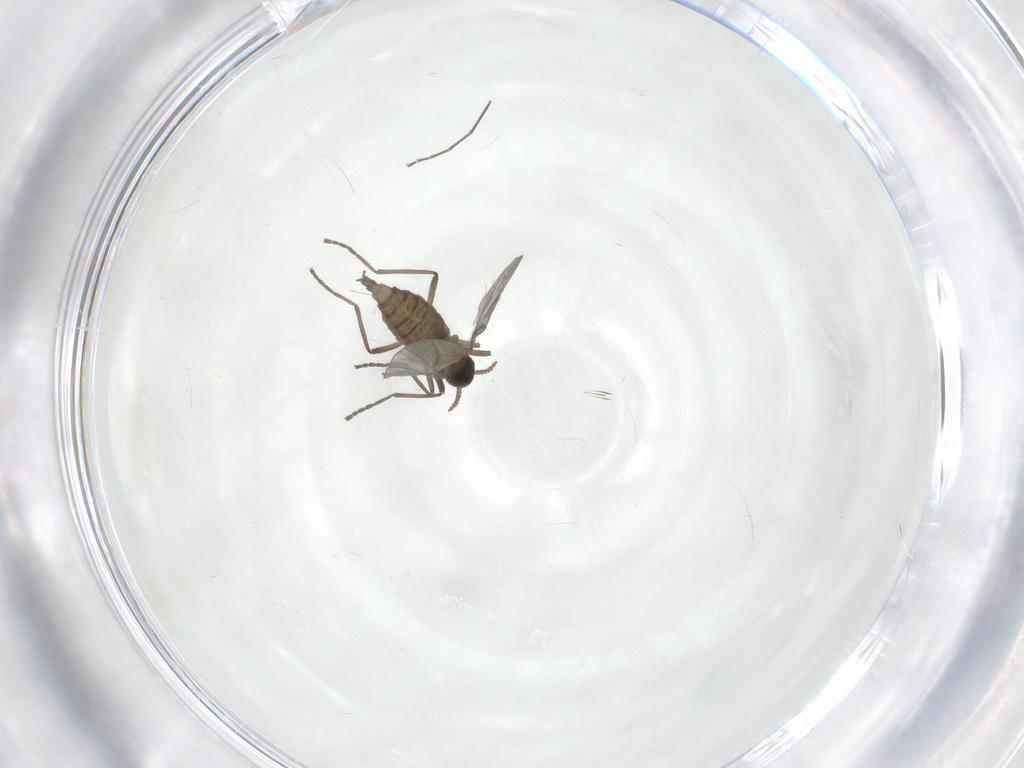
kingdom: Animalia
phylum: Arthropoda
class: Insecta
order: Diptera
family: Cecidomyiidae
